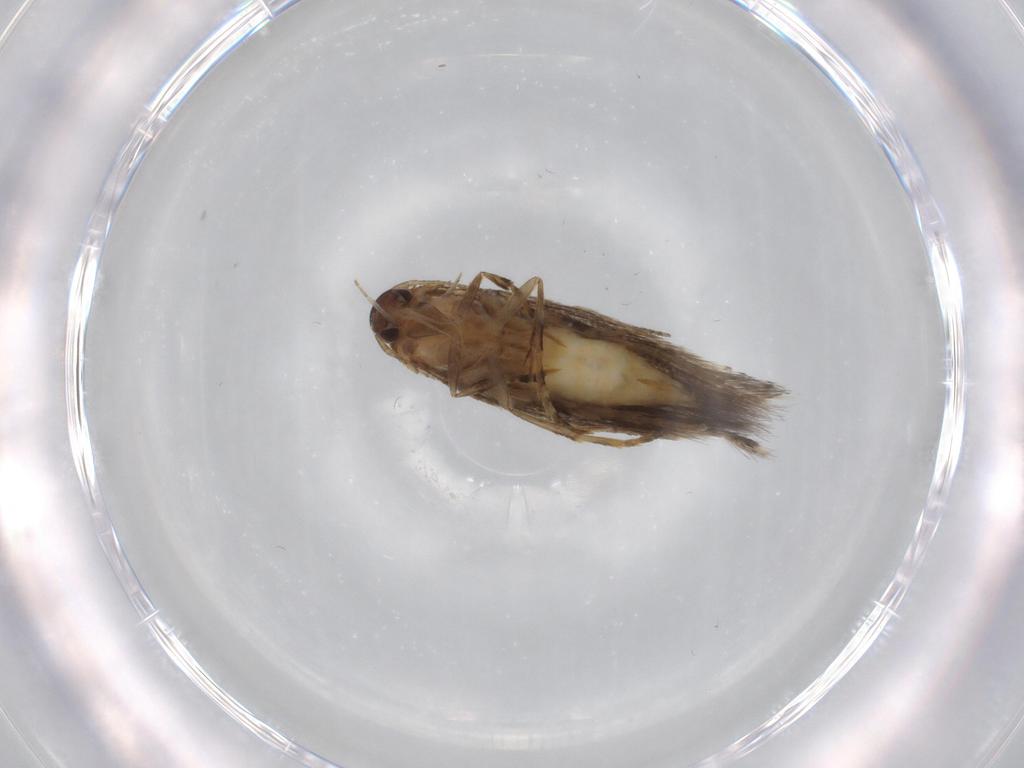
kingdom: Animalia
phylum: Arthropoda
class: Insecta
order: Lepidoptera
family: Elachistidae
